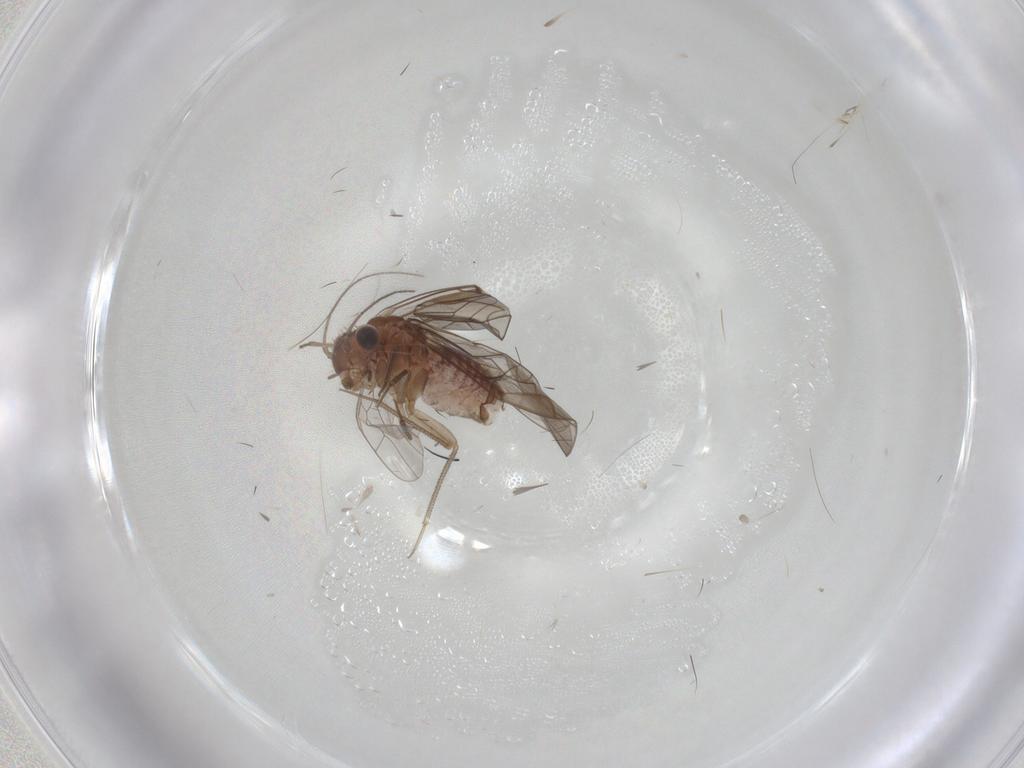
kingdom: Animalia
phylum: Arthropoda
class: Insecta
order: Psocodea
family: Lachesillidae
